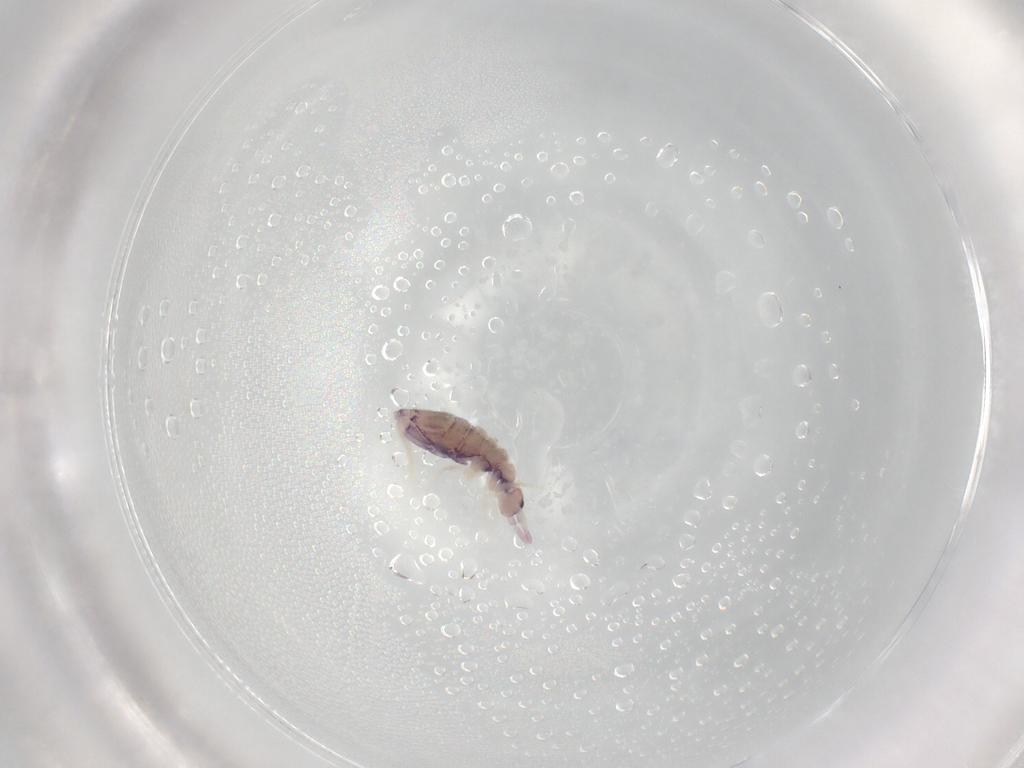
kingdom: Animalia
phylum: Arthropoda
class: Collembola
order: Entomobryomorpha
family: Entomobryidae
